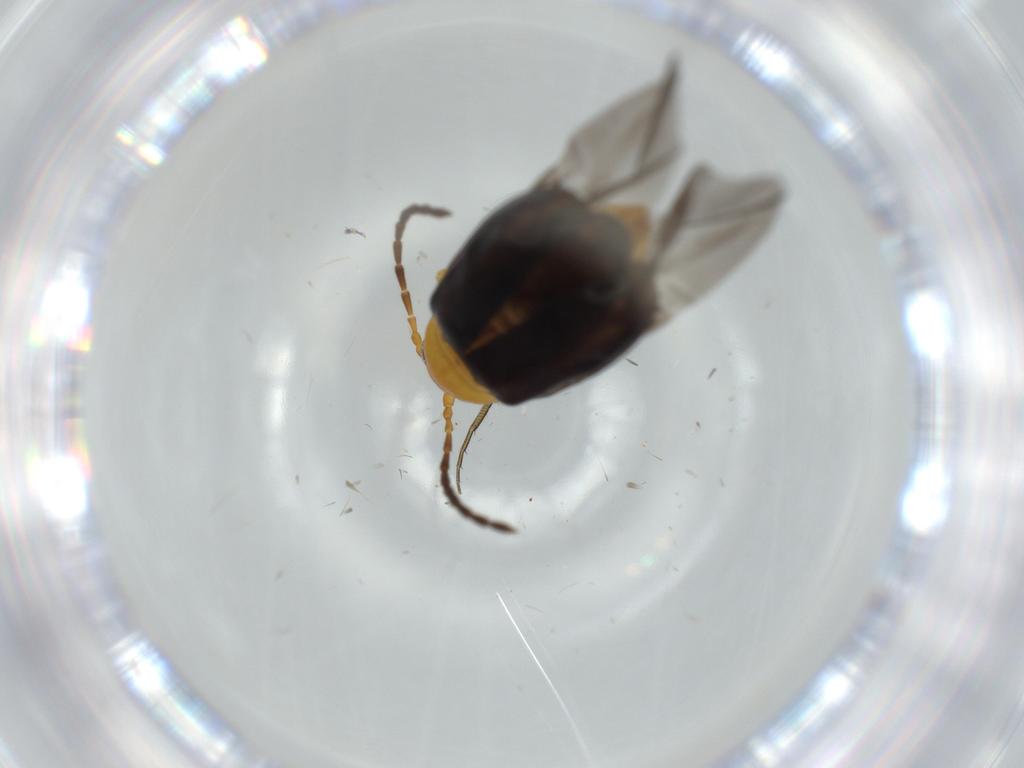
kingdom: Animalia
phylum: Arthropoda
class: Insecta
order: Coleoptera
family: Chrysomelidae
